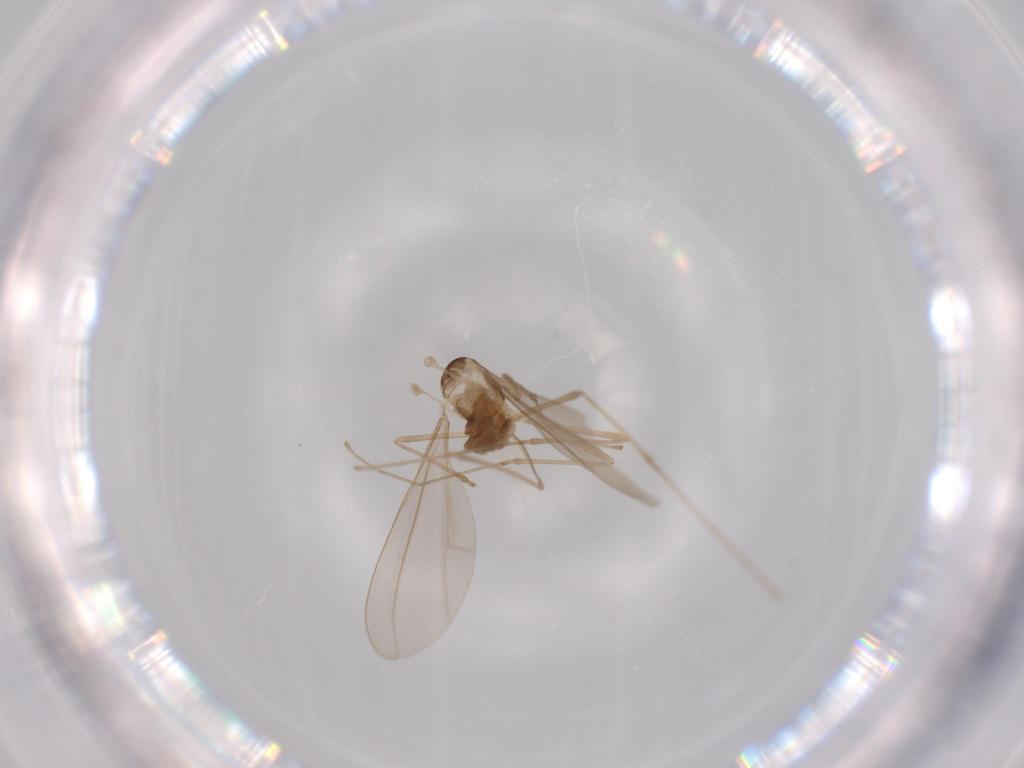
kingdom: Animalia
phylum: Arthropoda
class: Insecta
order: Diptera
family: Cecidomyiidae
